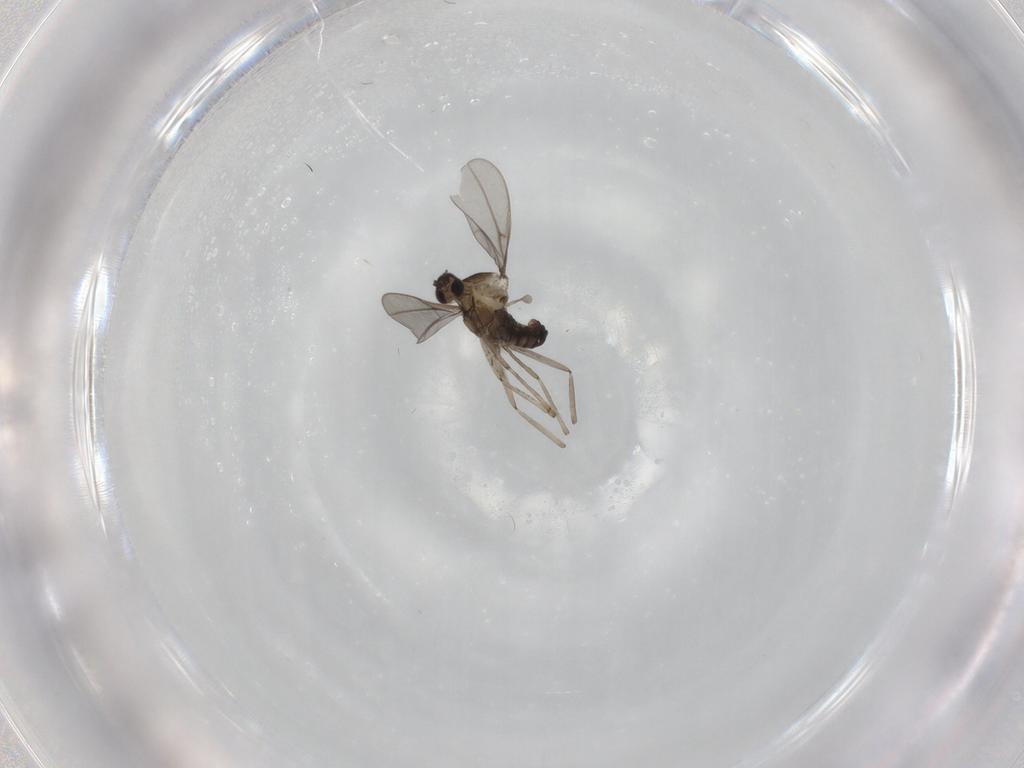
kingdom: Animalia
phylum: Arthropoda
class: Insecta
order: Diptera
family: Cecidomyiidae
